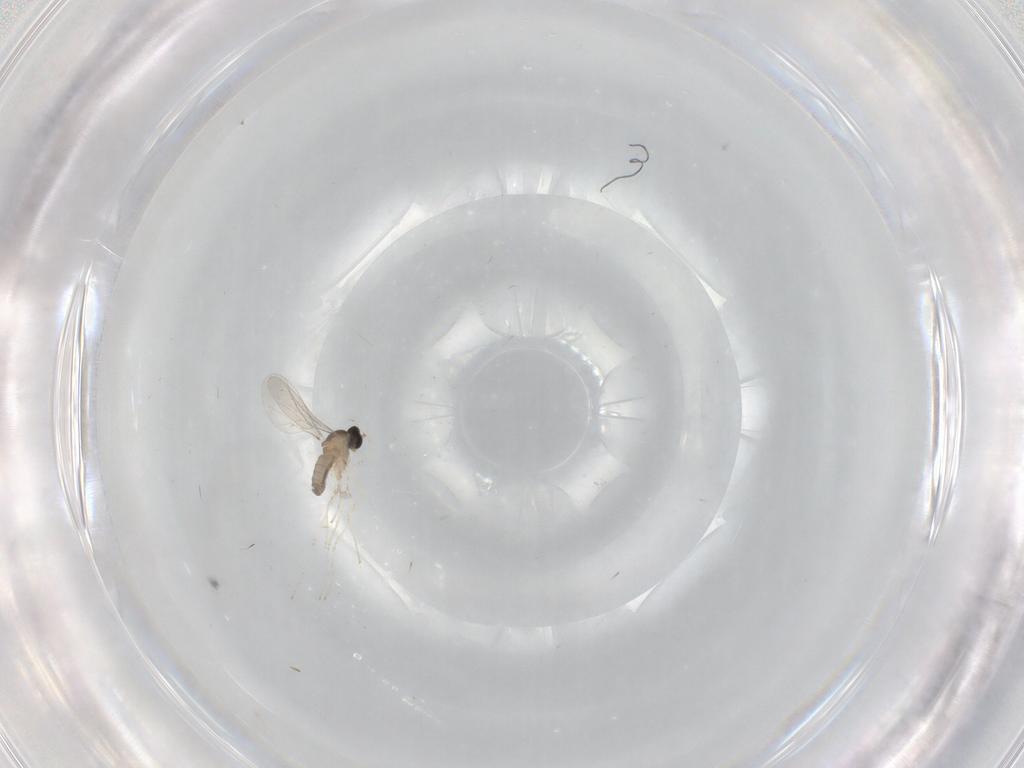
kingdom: Animalia
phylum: Arthropoda
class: Insecta
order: Diptera
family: Cecidomyiidae
